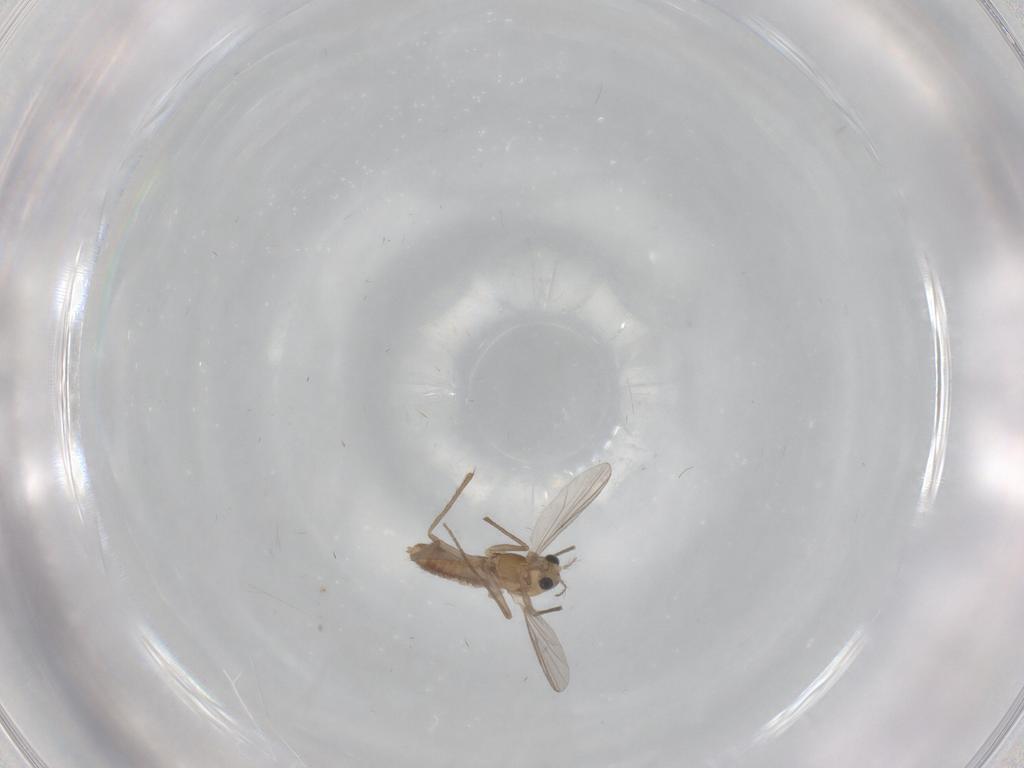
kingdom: Animalia
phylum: Arthropoda
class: Insecta
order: Diptera
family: Chironomidae
